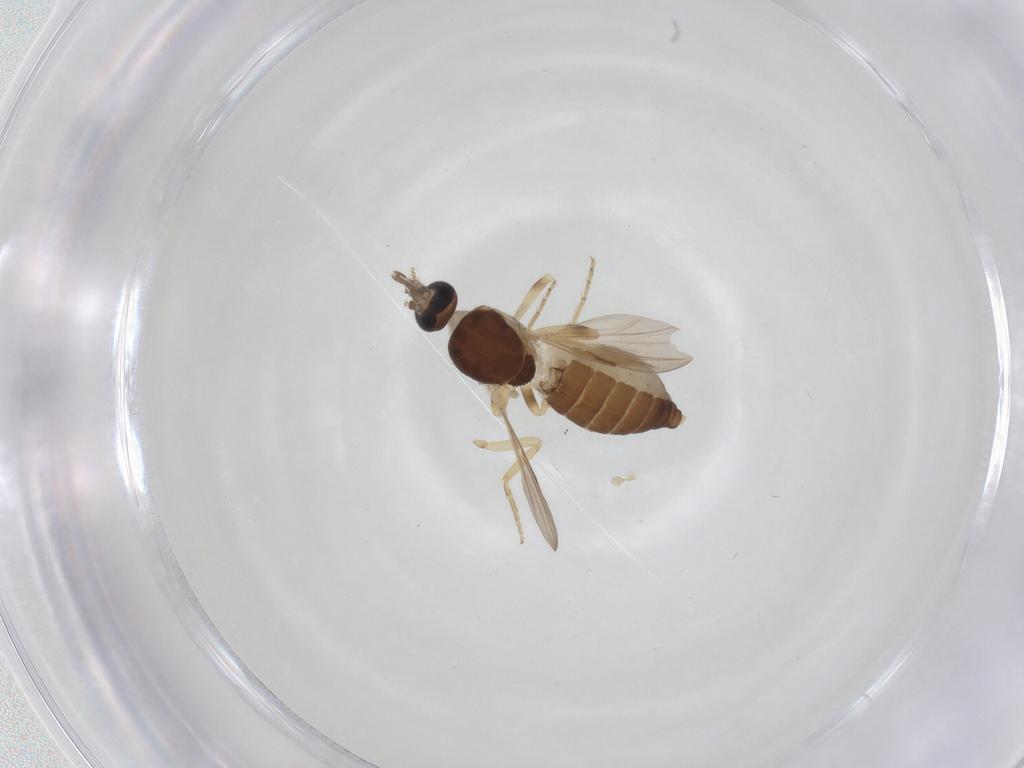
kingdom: Animalia
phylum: Arthropoda
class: Insecta
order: Diptera
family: Ceratopogonidae
